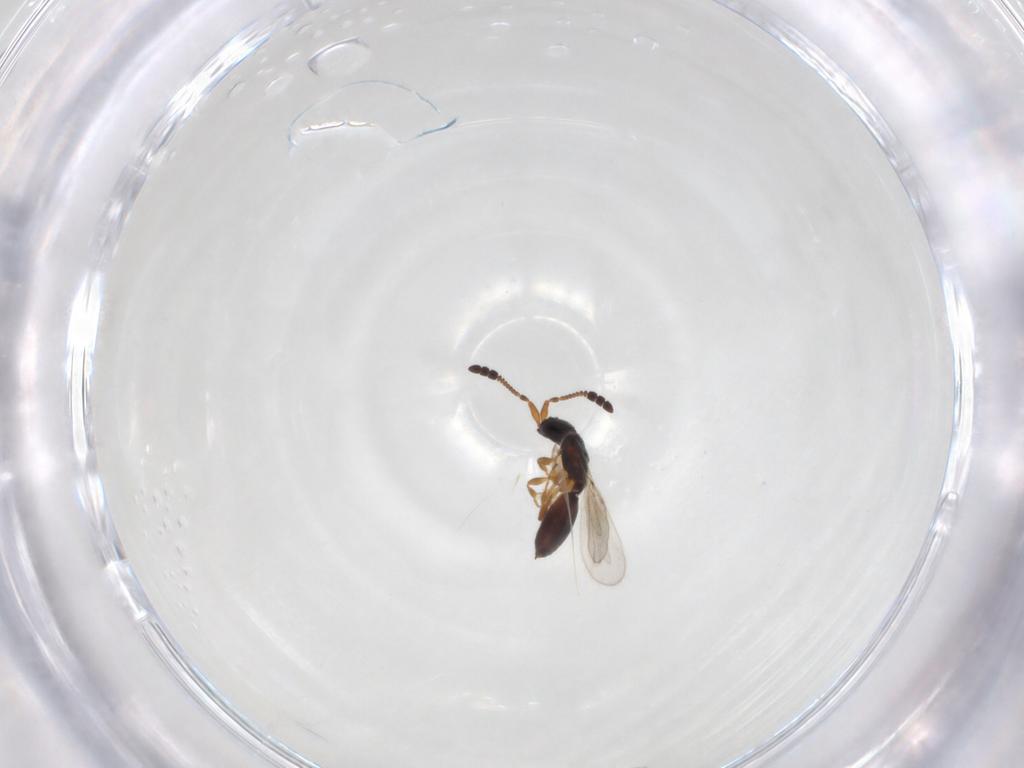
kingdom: Animalia
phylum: Arthropoda
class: Insecta
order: Hymenoptera
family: Diapriidae
